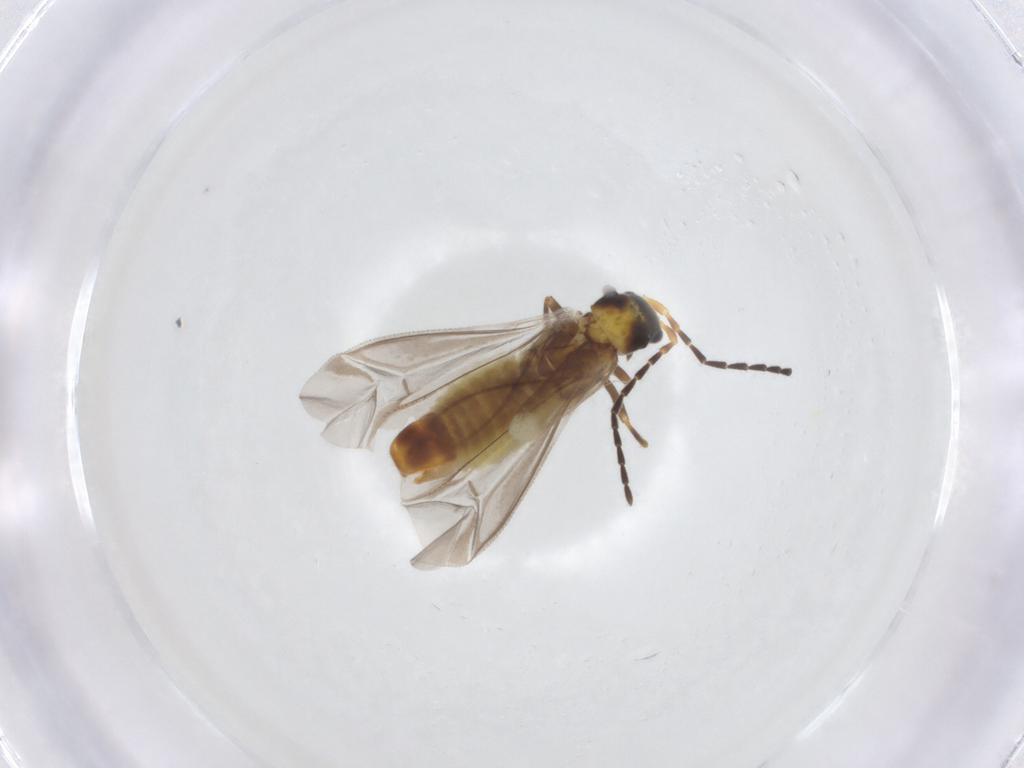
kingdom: Animalia
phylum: Arthropoda
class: Insecta
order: Coleoptera
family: Cantharidae
